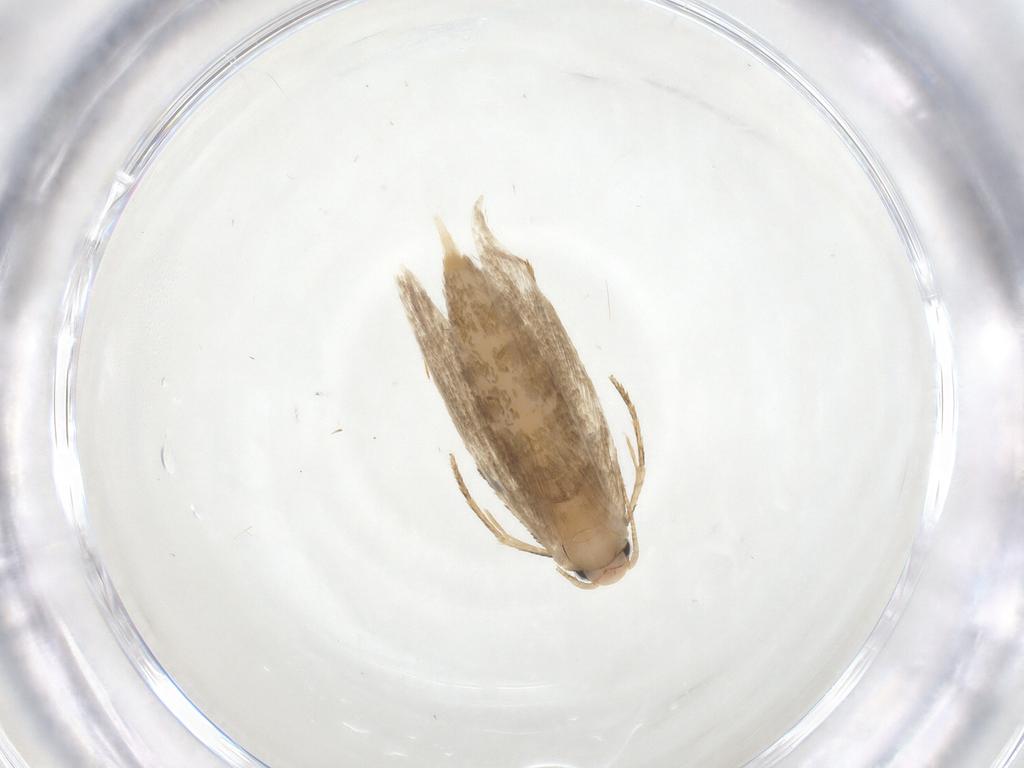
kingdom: Animalia
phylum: Arthropoda
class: Insecta
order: Lepidoptera
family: Tineidae
